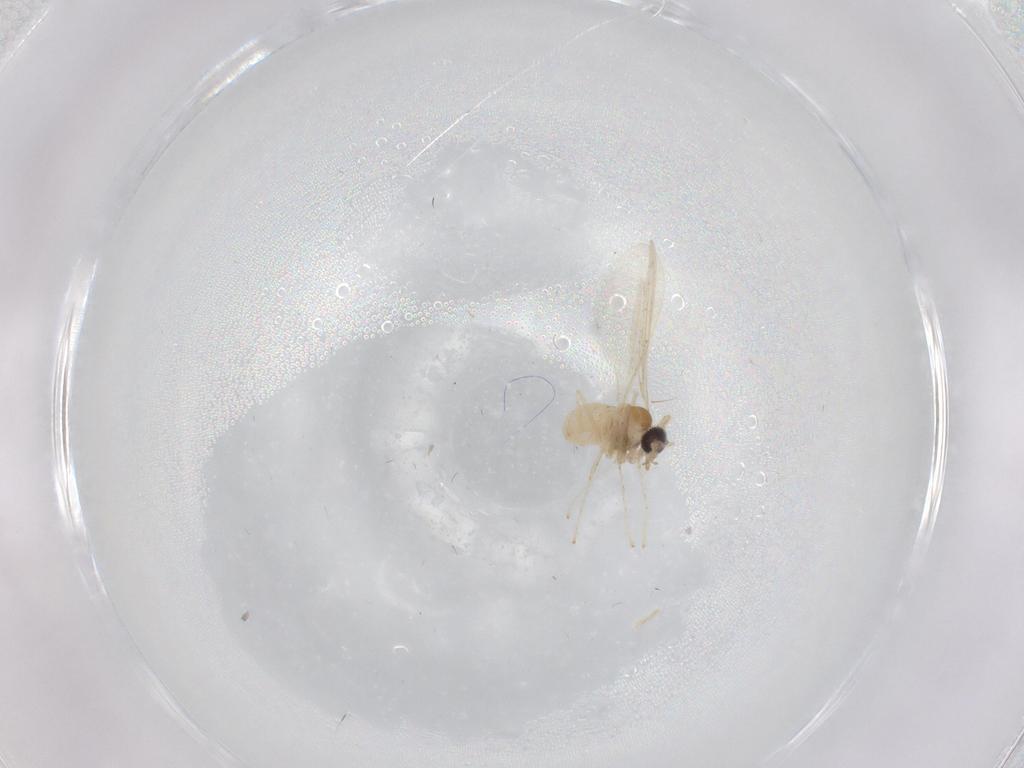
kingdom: Animalia
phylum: Arthropoda
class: Insecta
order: Diptera
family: Cecidomyiidae
